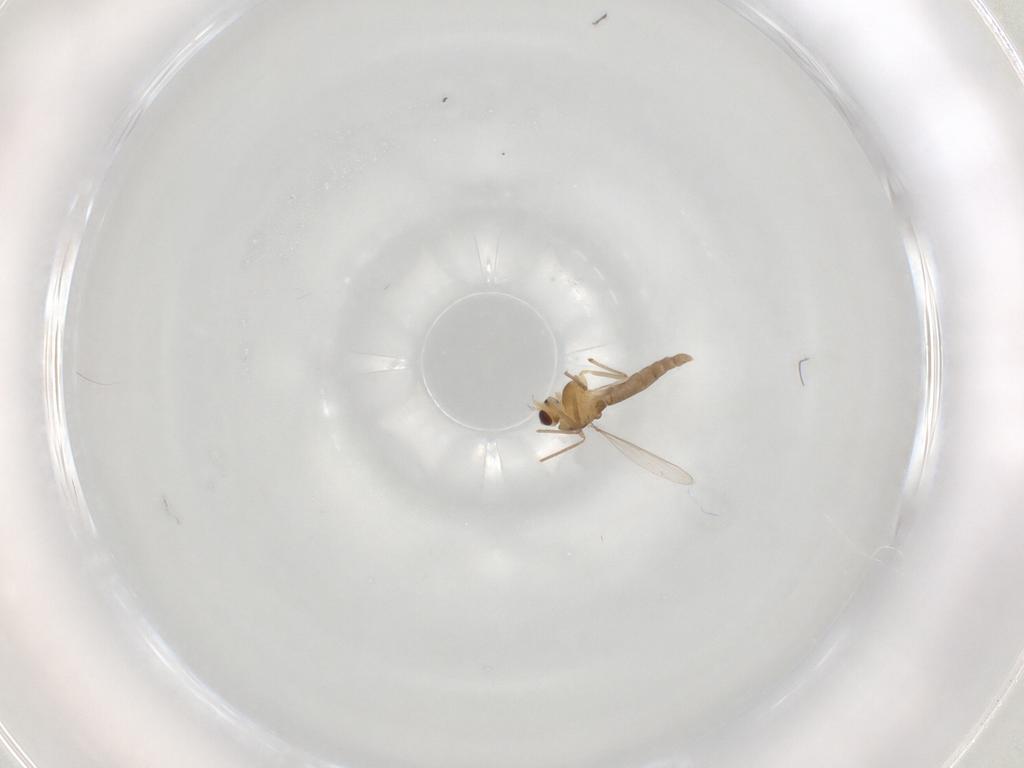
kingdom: Animalia
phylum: Arthropoda
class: Insecta
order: Diptera
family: Chironomidae
